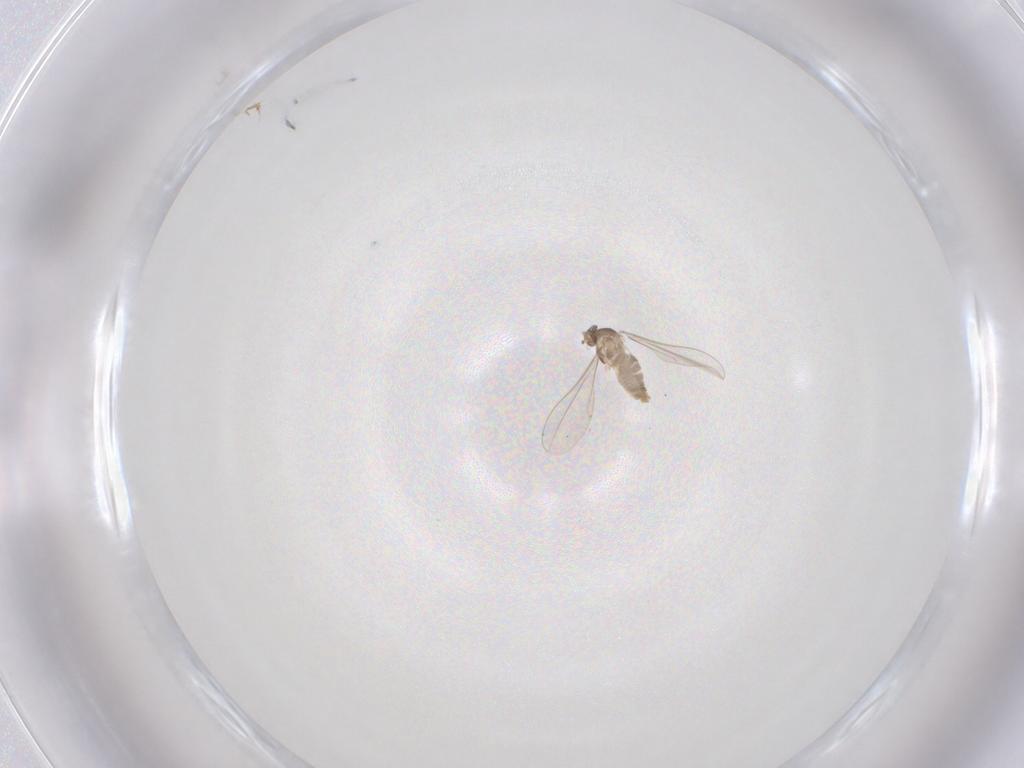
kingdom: Animalia
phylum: Arthropoda
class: Insecta
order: Diptera
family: Cecidomyiidae
